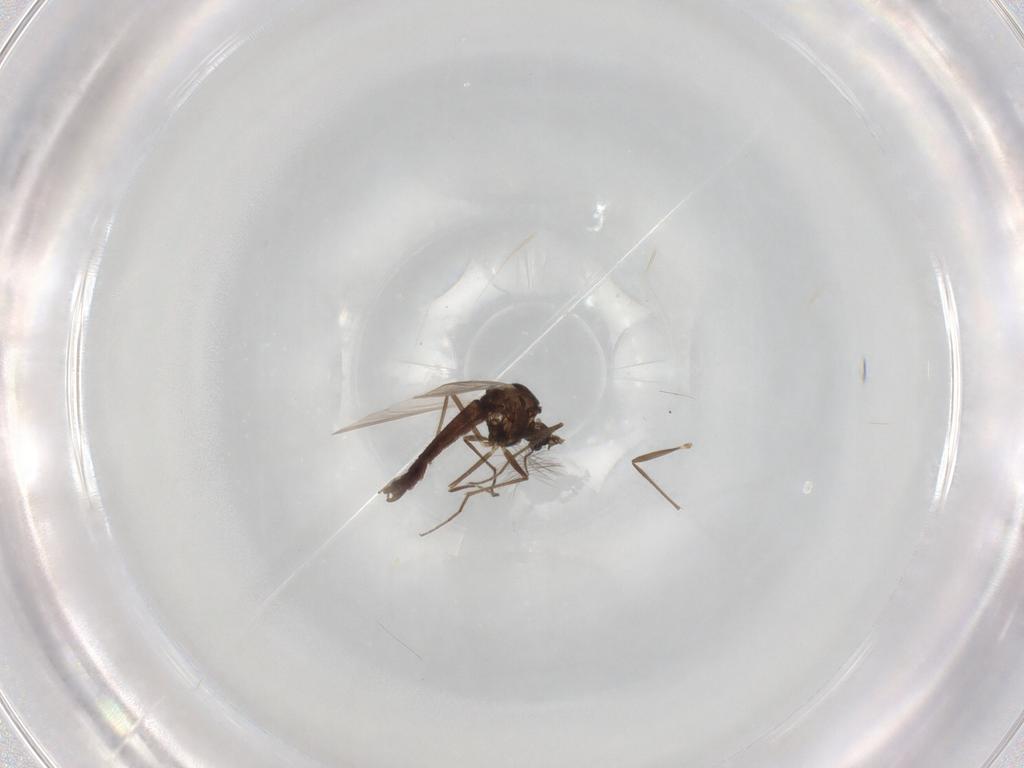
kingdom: Animalia
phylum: Arthropoda
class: Insecta
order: Diptera
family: Chironomidae
